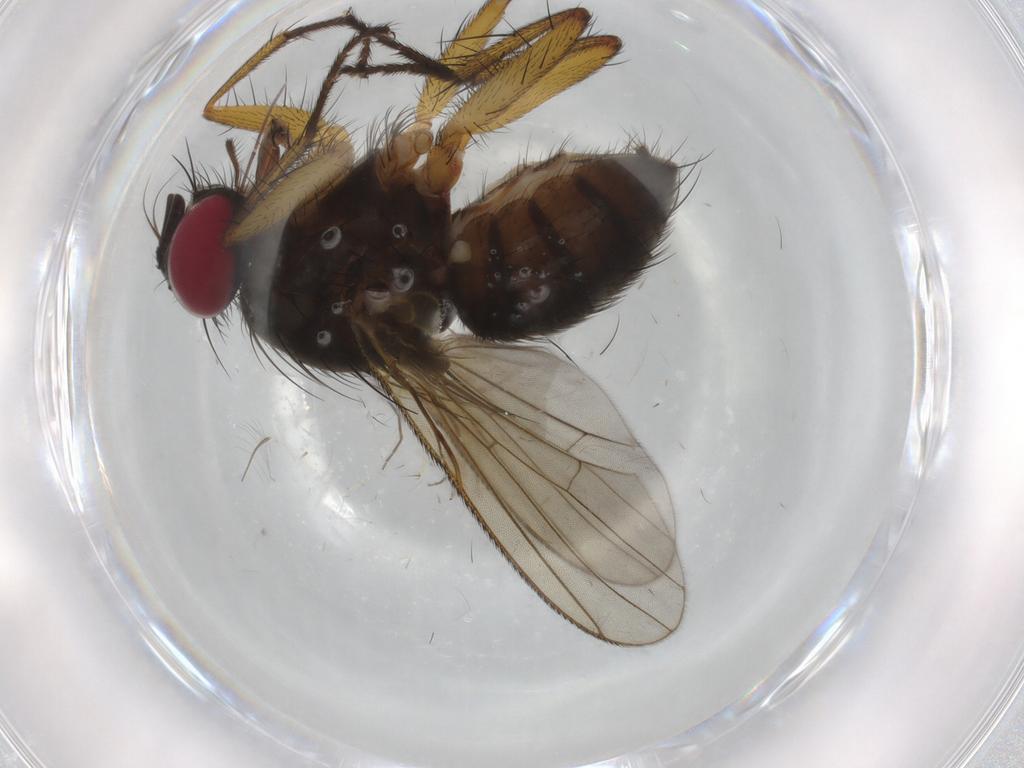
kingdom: Animalia
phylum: Arthropoda
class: Insecta
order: Diptera
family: Muscidae
